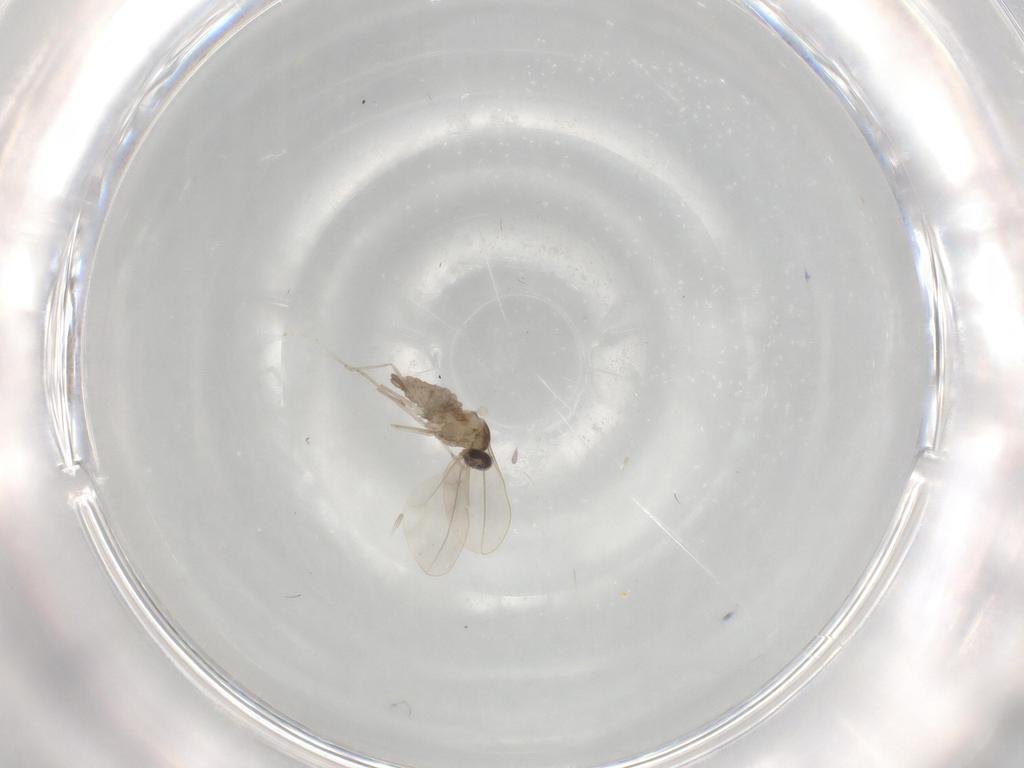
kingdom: Animalia
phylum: Arthropoda
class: Insecta
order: Diptera
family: Cecidomyiidae
